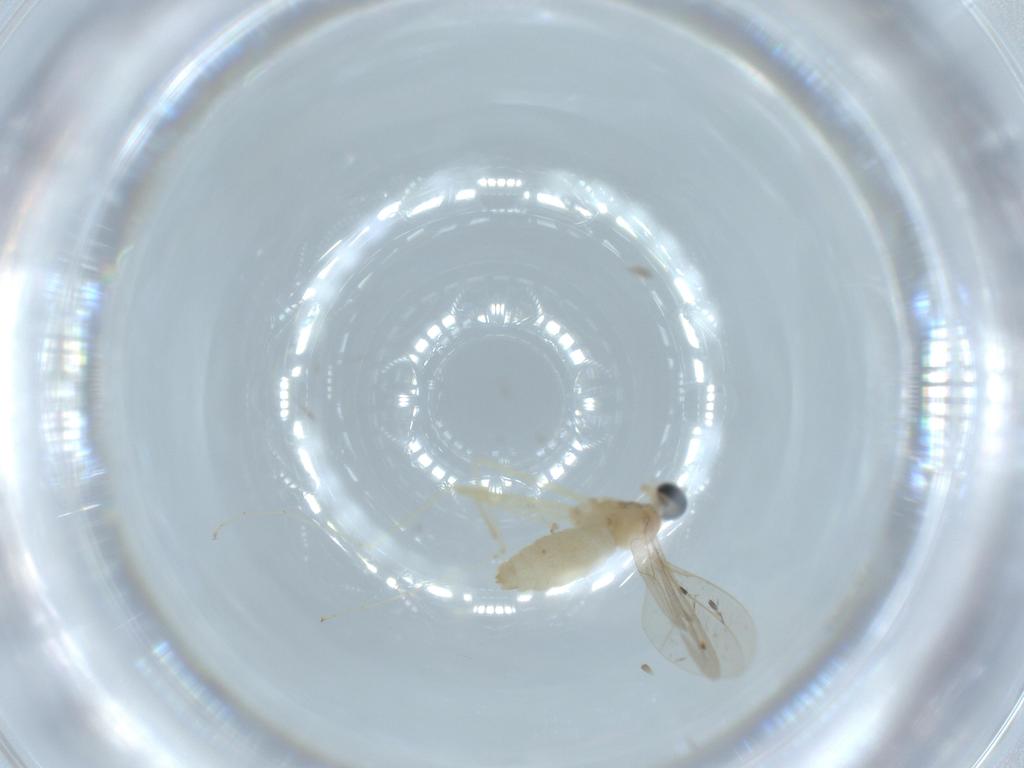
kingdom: Animalia
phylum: Arthropoda
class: Insecta
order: Diptera
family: Cecidomyiidae
